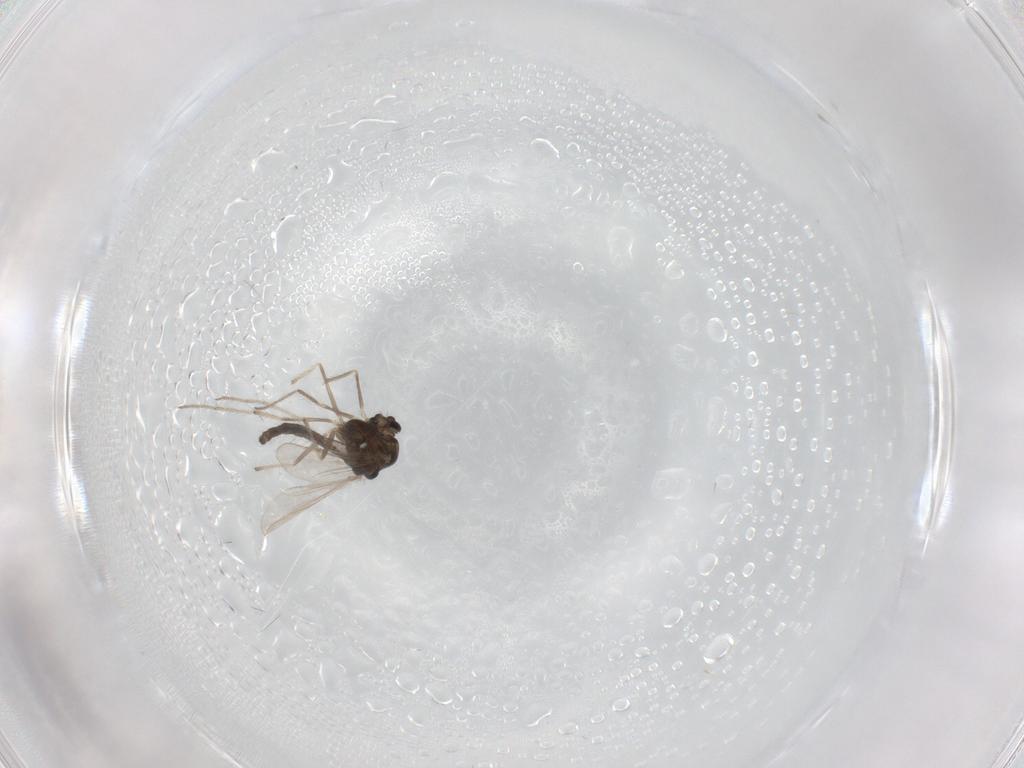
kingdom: Animalia
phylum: Arthropoda
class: Insecta
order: Diptera
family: Chironomidae
